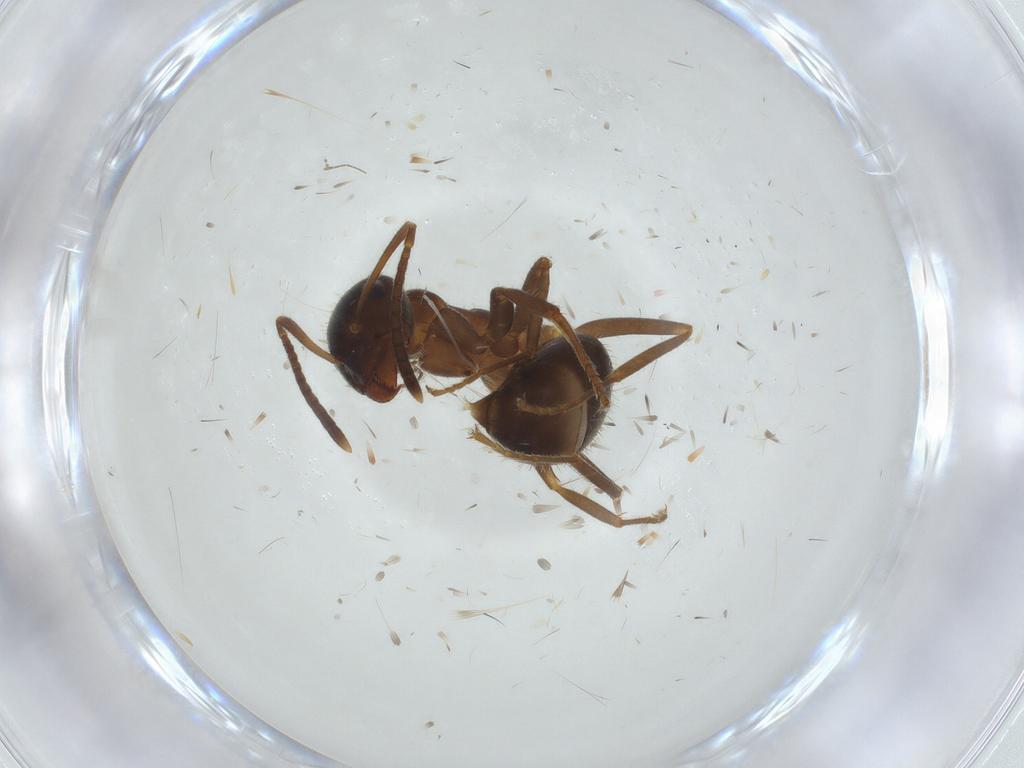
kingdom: Animalia
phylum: Arthropoda
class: Insecta
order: Hymenoptera
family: Formicidae
